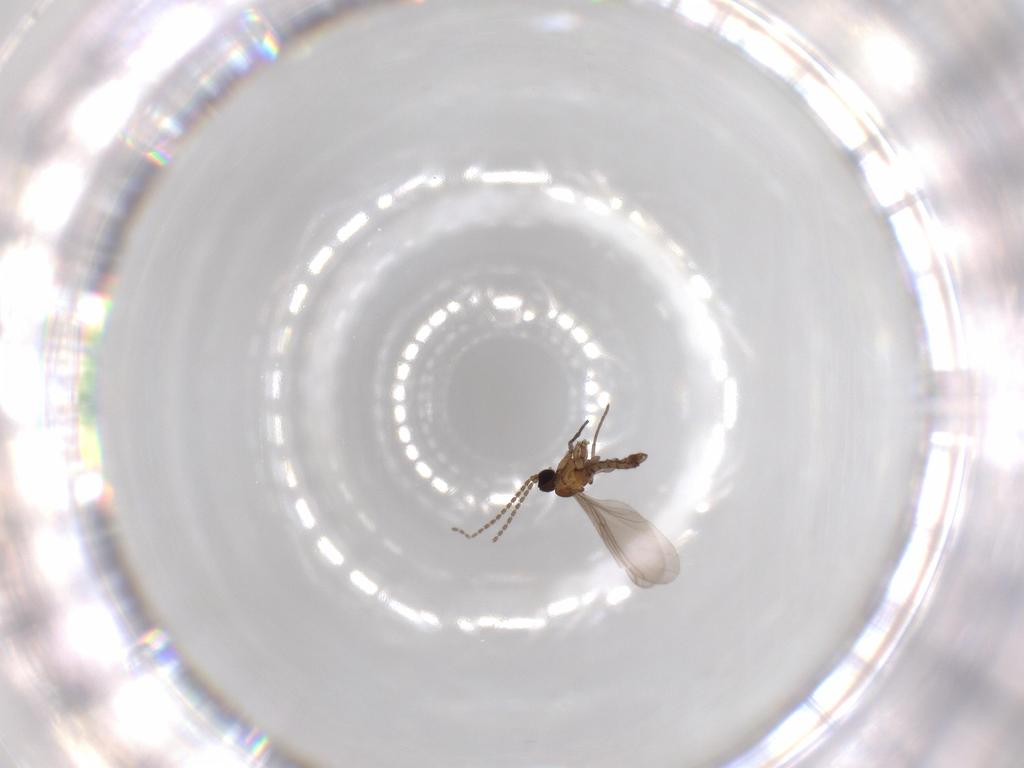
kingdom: Animalia
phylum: Arthropoda
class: Insecta
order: Diptera
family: Sciaridae
